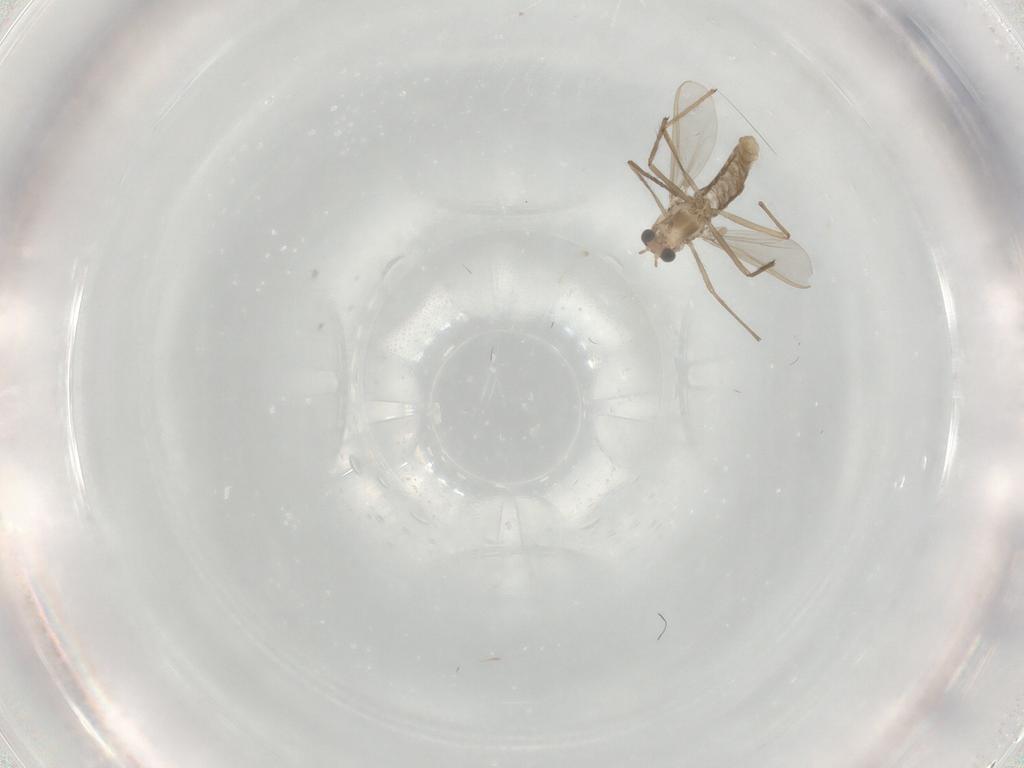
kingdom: Animalia
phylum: Arthropoda
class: Insecta
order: Diptera
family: Chironomidae
